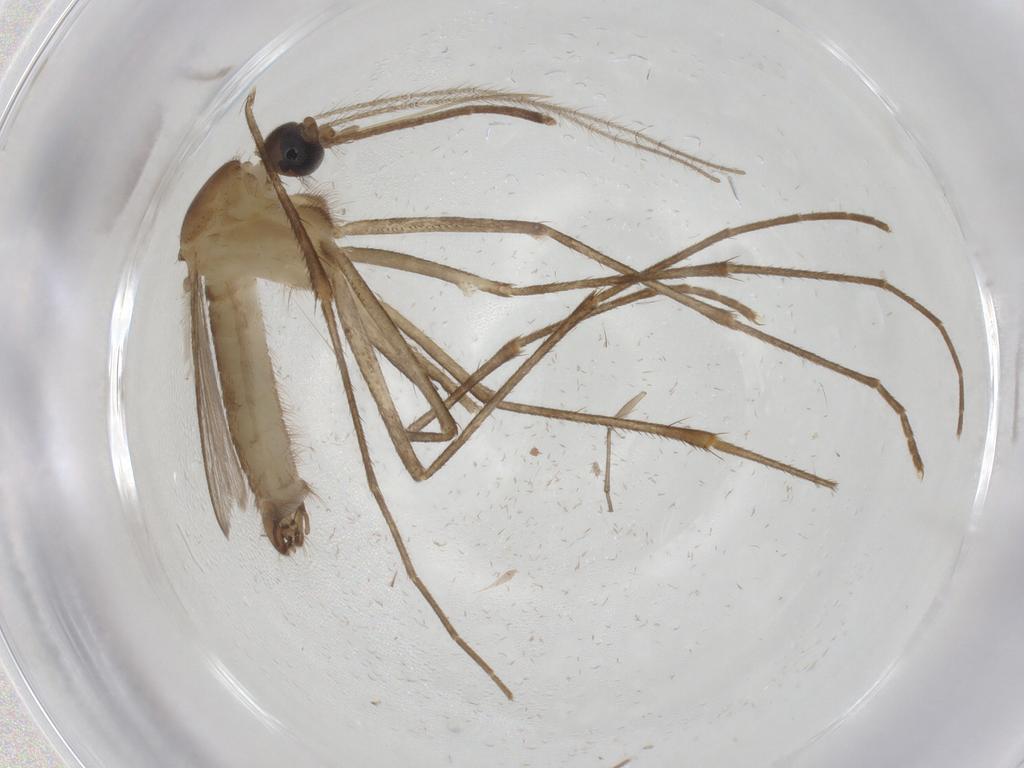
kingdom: Animalia
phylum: Arthropoda
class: Insecta
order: Diptera
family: Culicidae
